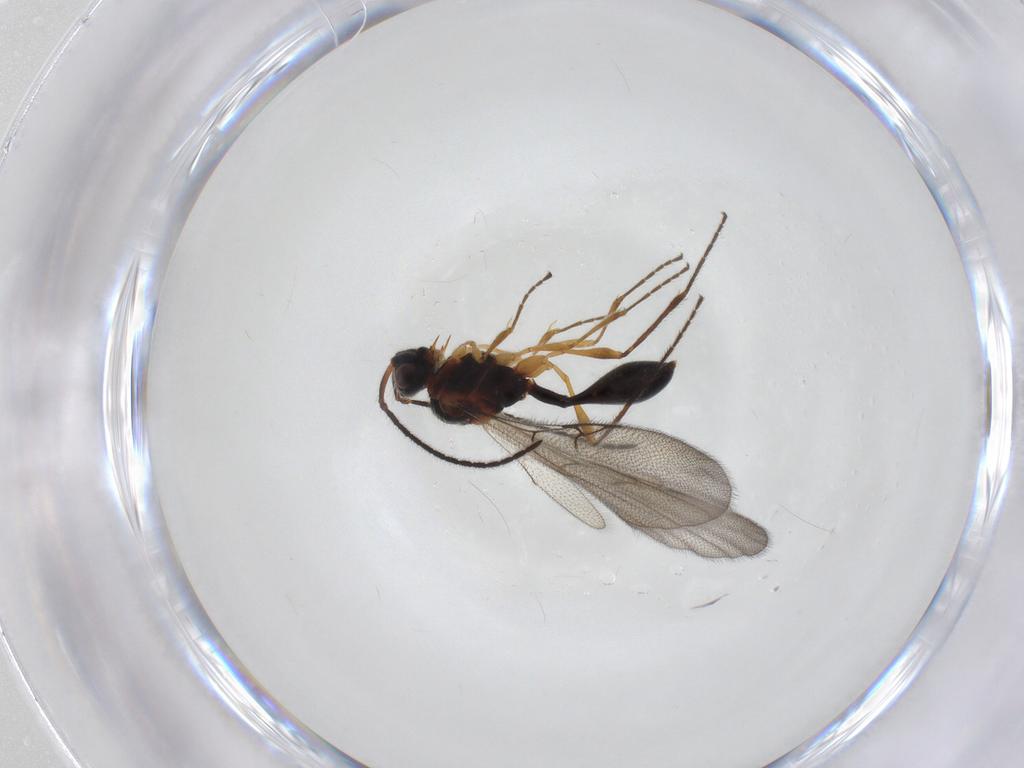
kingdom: Animalia
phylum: Arthropoda
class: Insecta
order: Hymenoptera
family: Diapriidae
